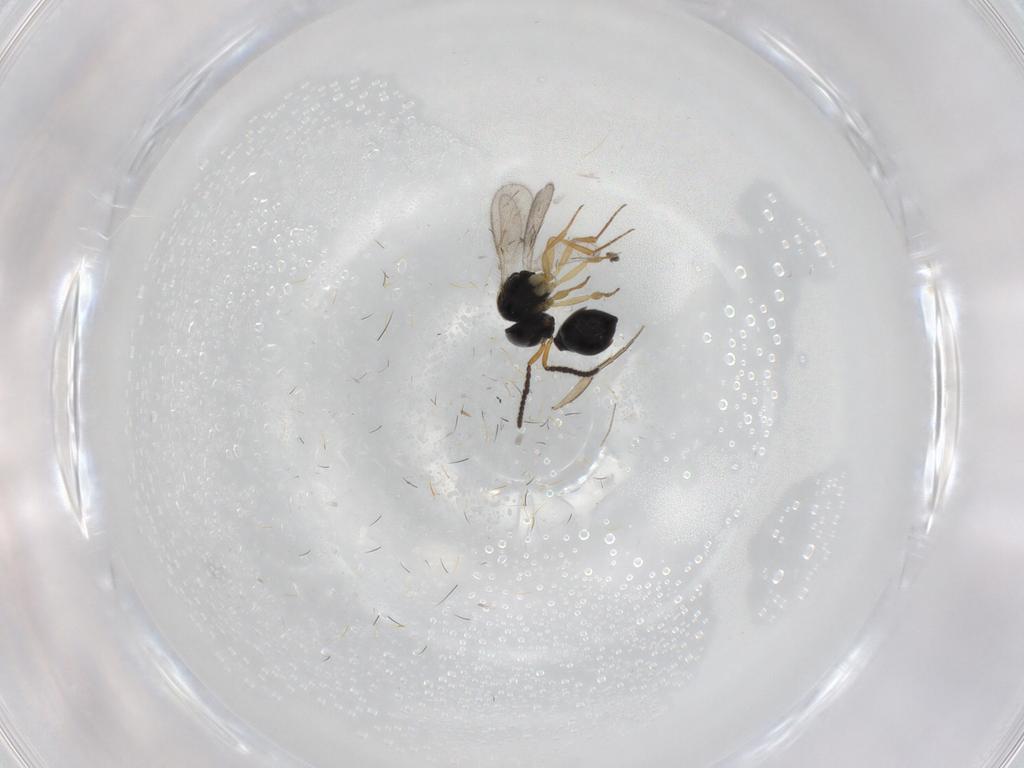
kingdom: Animalia
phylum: Arthropoda
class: Insecta
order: Hymenoptera
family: Scelionidae
